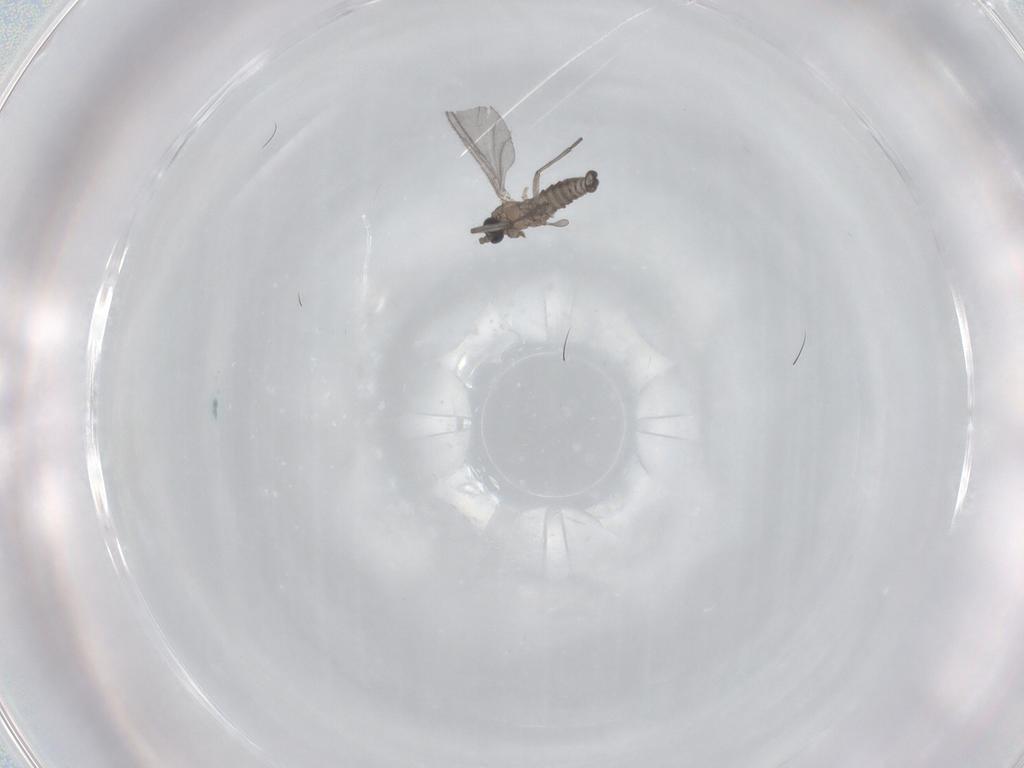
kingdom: Animalia
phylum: Arthropoda
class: Insecta
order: Diptera
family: Sciaridae
